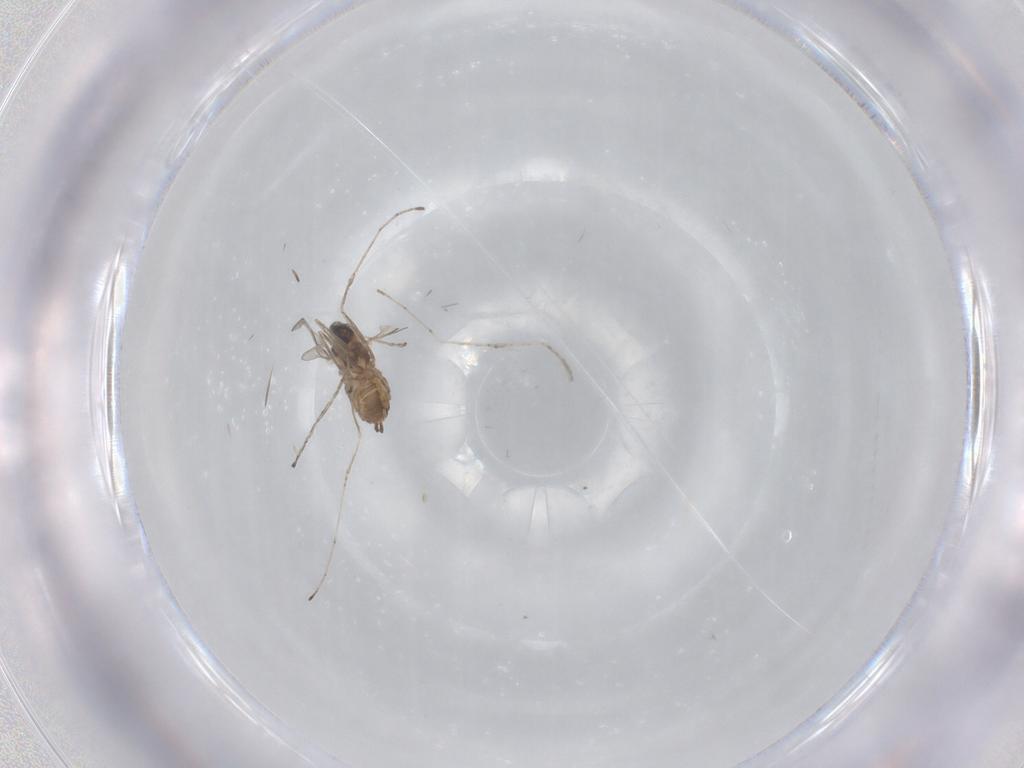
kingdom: Animalia
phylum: Arthropoda
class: Insecta
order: Diptera
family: Cecidomyiidae
